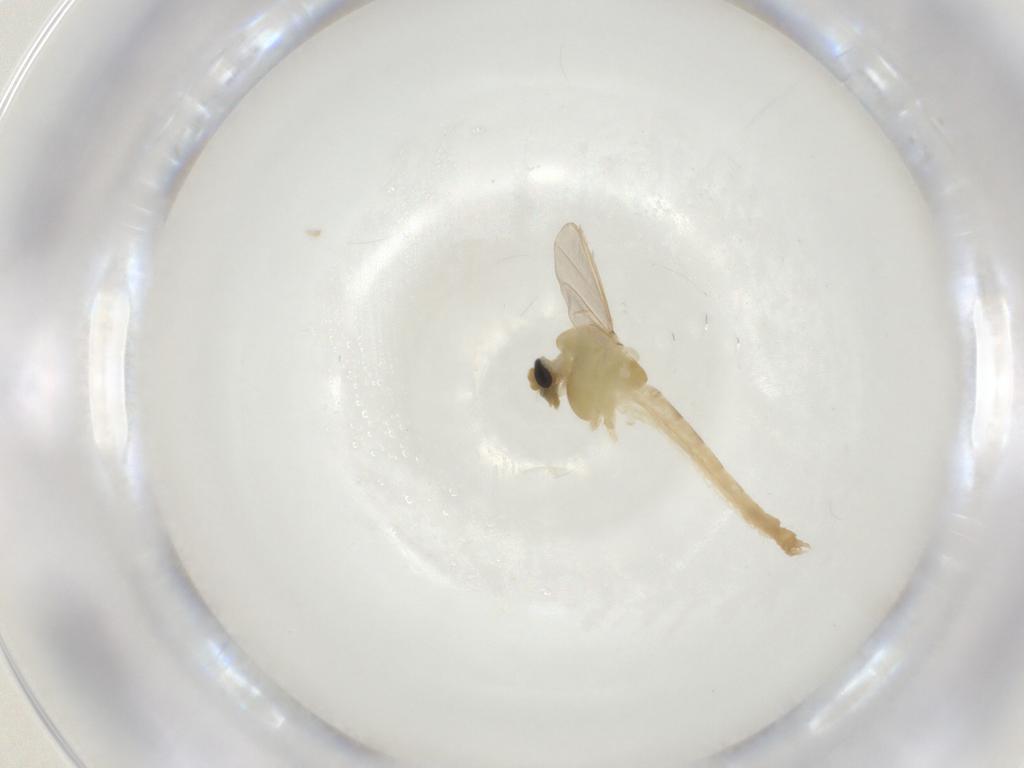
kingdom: Animalia
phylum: Arthropoda
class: Insecta
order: Diptera
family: Chironomidae
